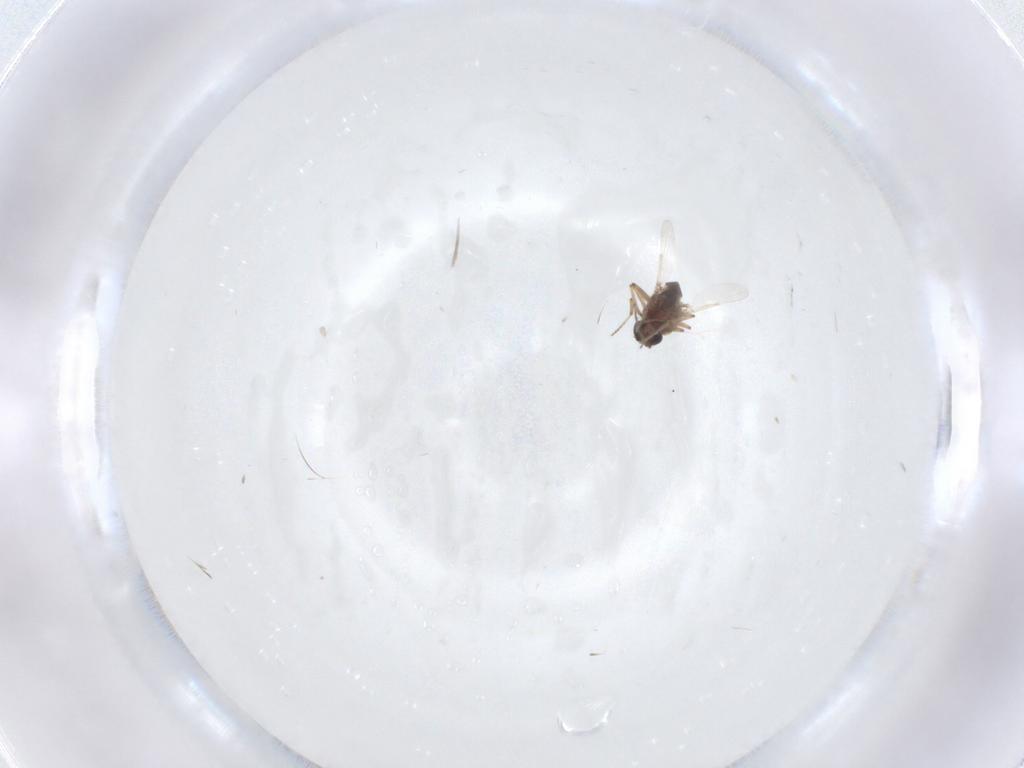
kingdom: Animalia
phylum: Arthropoda
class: Insecta
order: Diptera
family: Ceratopogonidae
